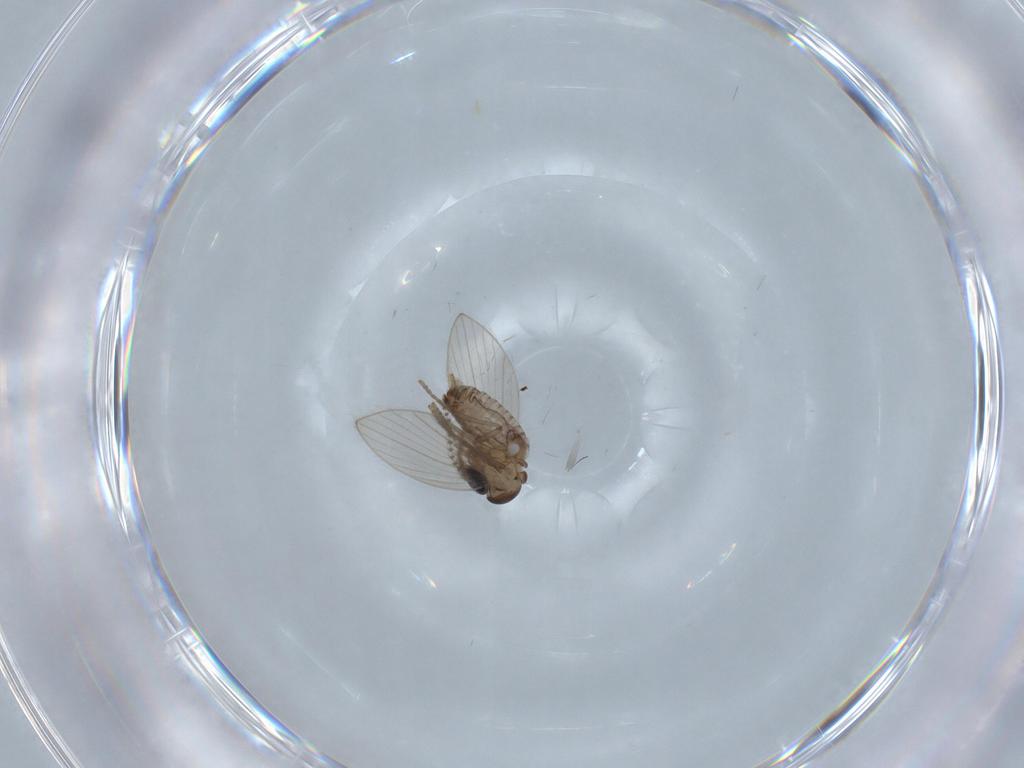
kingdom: Animalia
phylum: Arthropoda
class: Insecta
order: Diptera
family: Psychodidae
